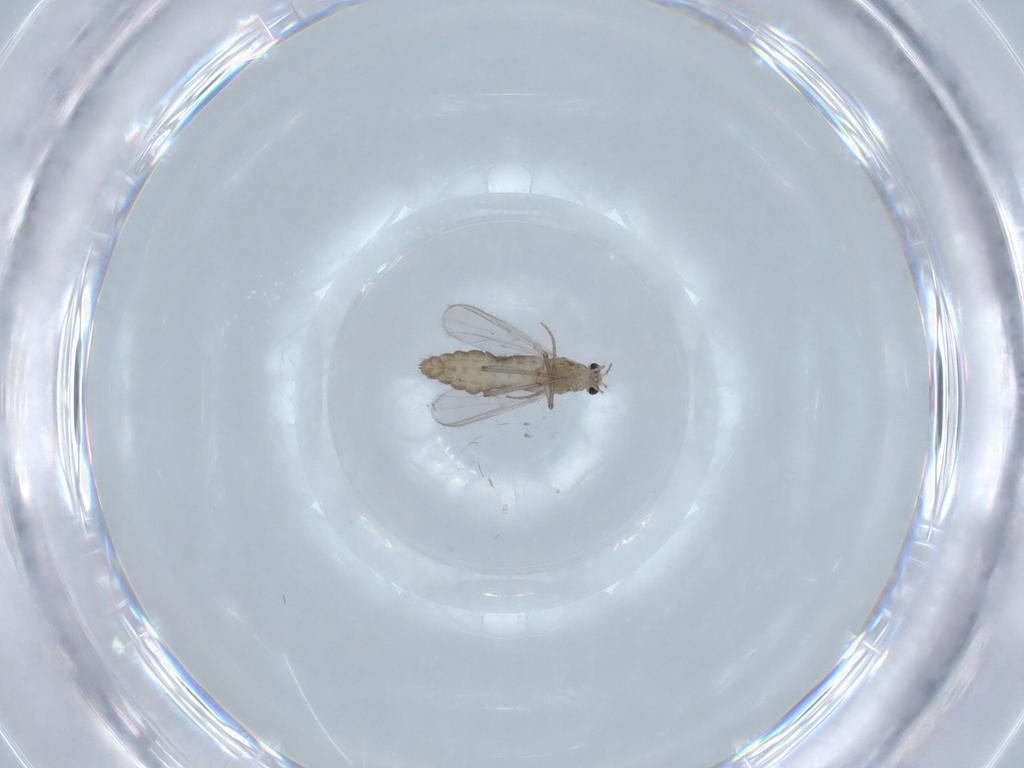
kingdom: Animalia
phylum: Arthropoda
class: Insecta
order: Diptera
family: Chironomidae
